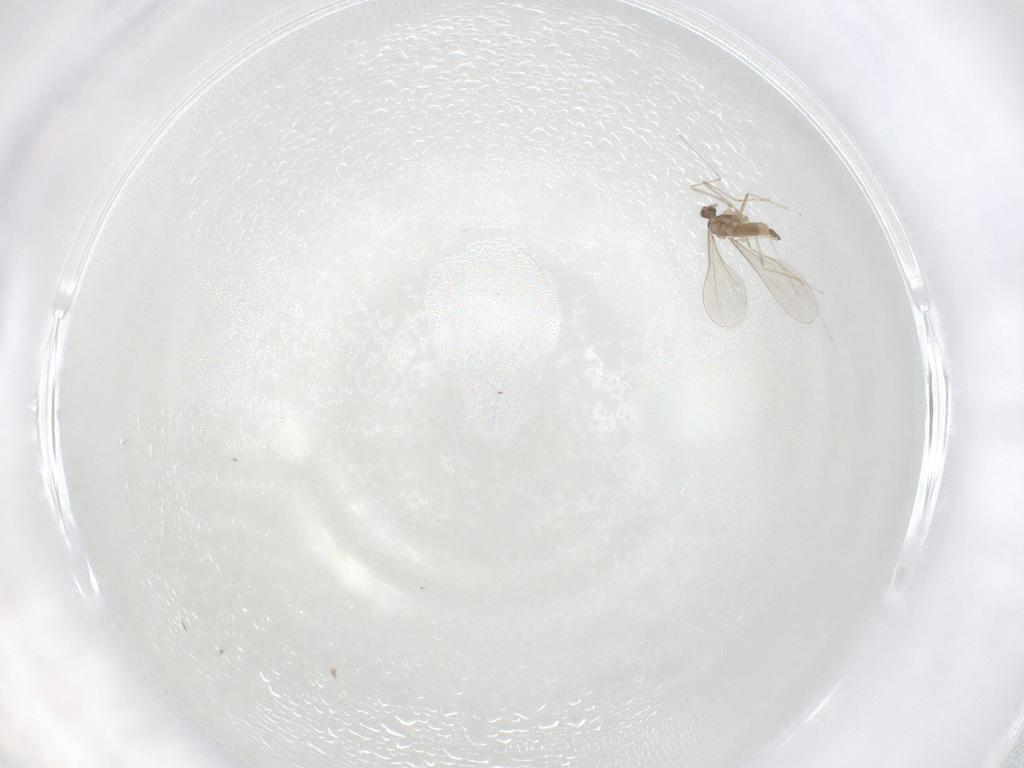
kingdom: Animalia
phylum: Arthropoda
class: Insecta
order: Diptera
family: Cecidomyiidae
